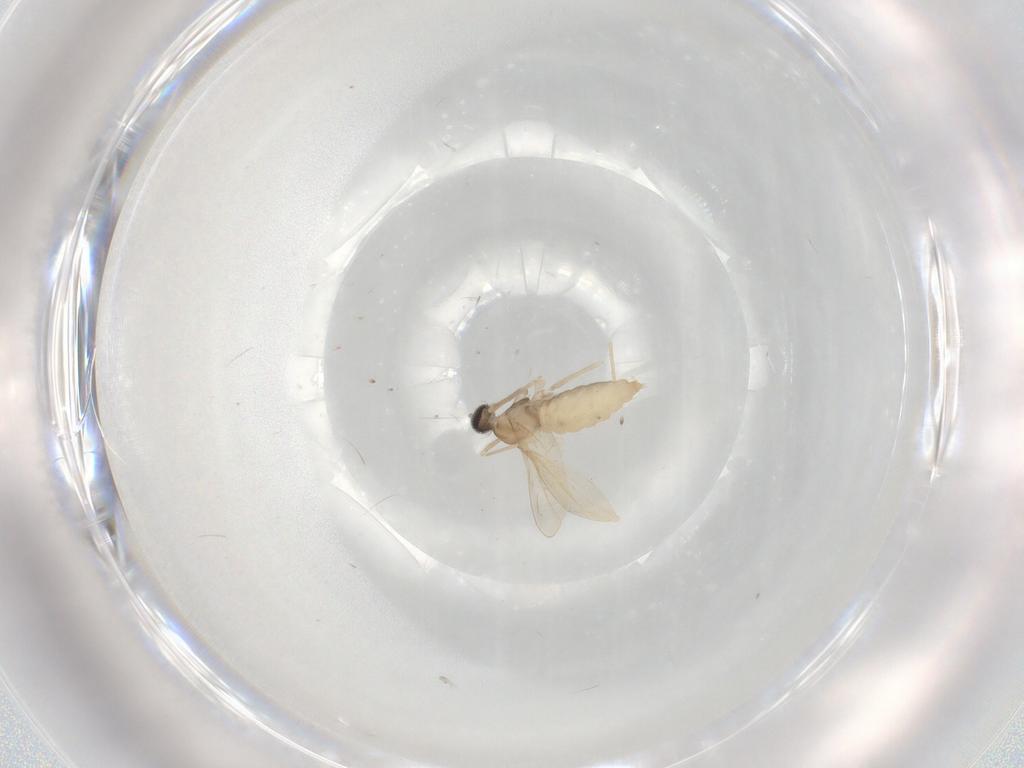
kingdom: Animalia
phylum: Arthropoda
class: Insecta
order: Diptera
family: Cecidomyiidae
